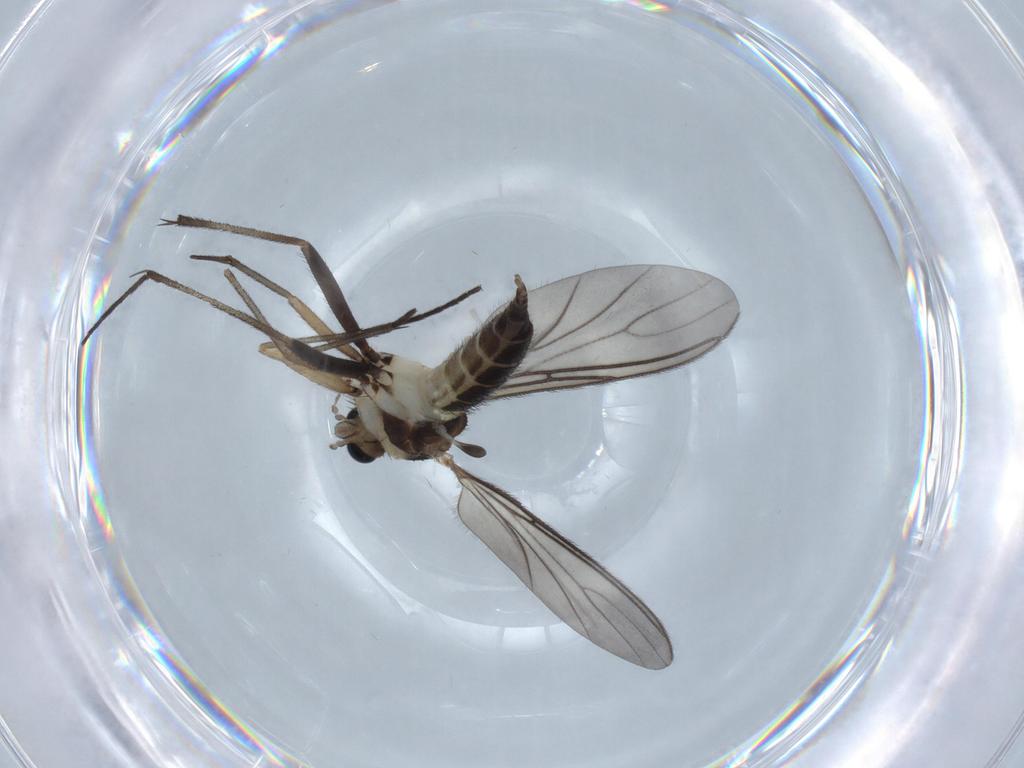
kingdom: Animalia
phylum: Arthropoda
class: Insecta
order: Diptera
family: Sciaridae
